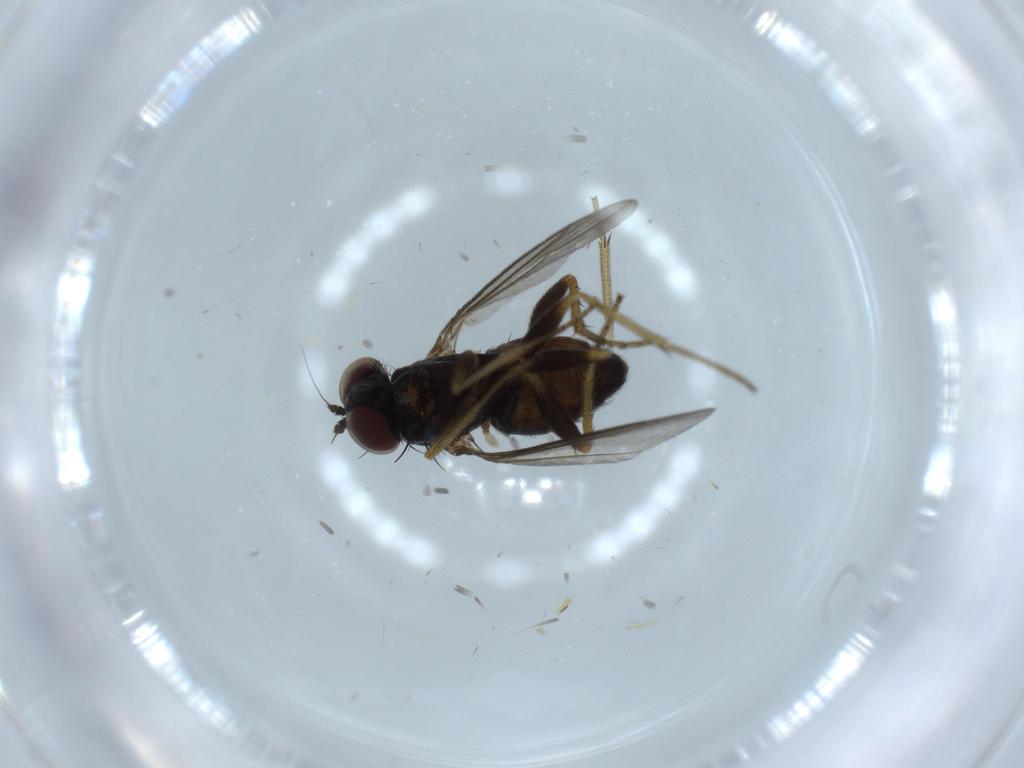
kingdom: Animalia
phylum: Arthropoda
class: Insecta
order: Diptera
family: Sciaridae
